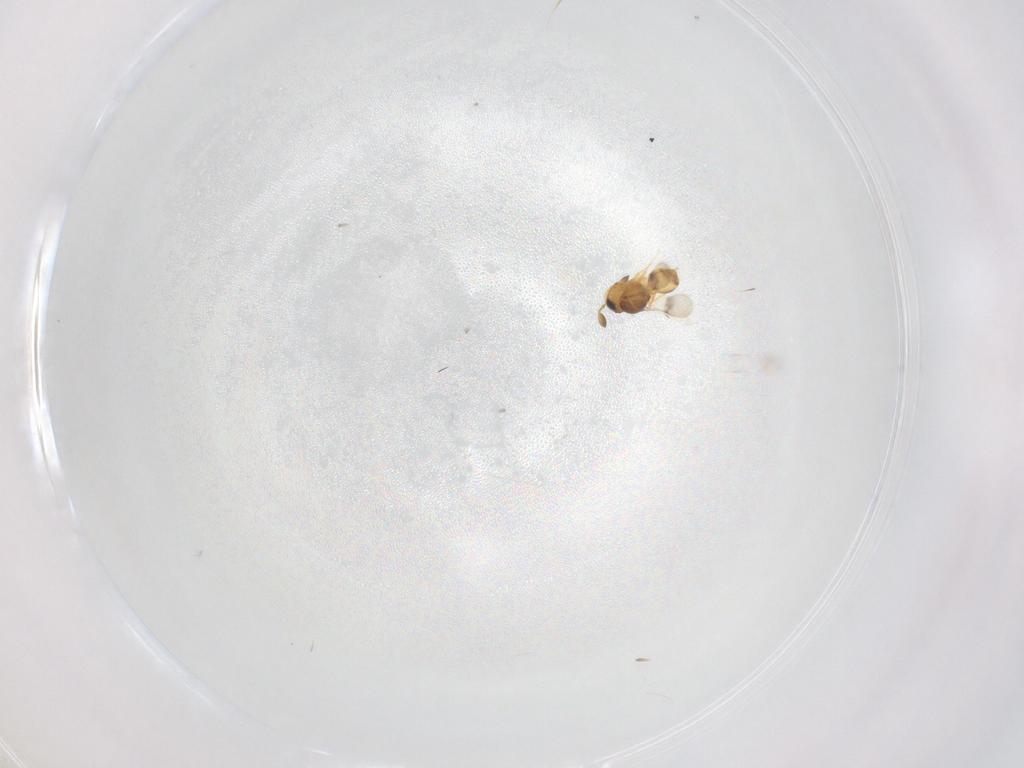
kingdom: Animalia
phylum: Arthropoda
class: Insecta
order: Hymenoptera
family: Scelionidae
